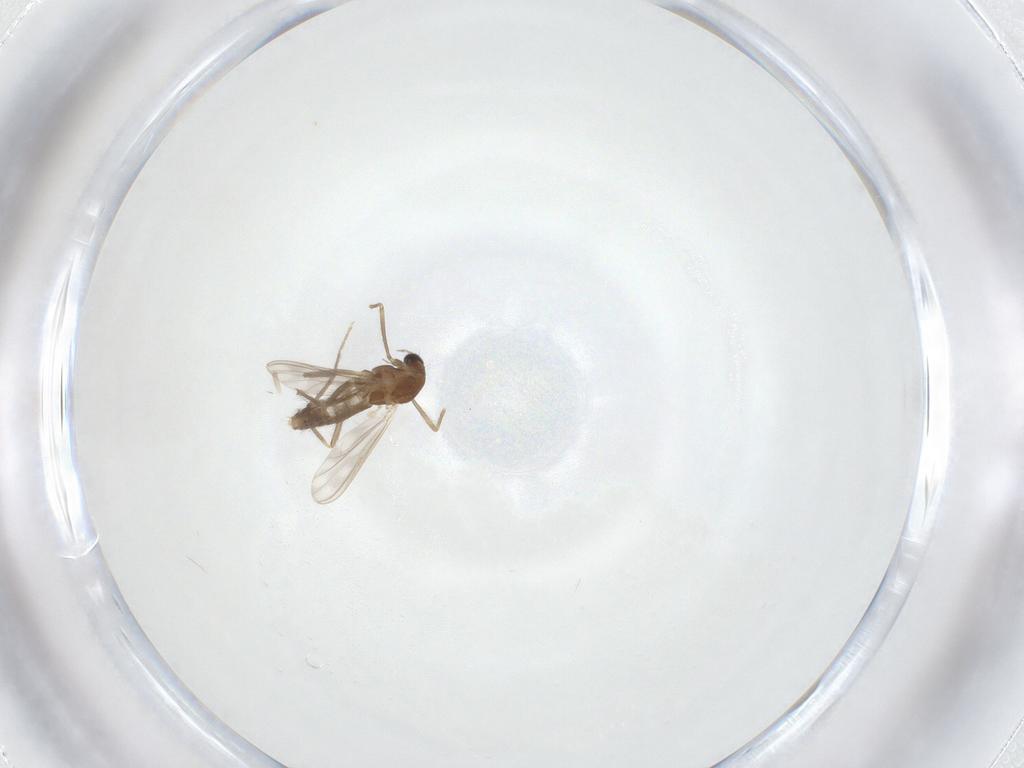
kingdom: Animalia
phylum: Arthropoda
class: Insecta
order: Diptera
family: Chironomidae
